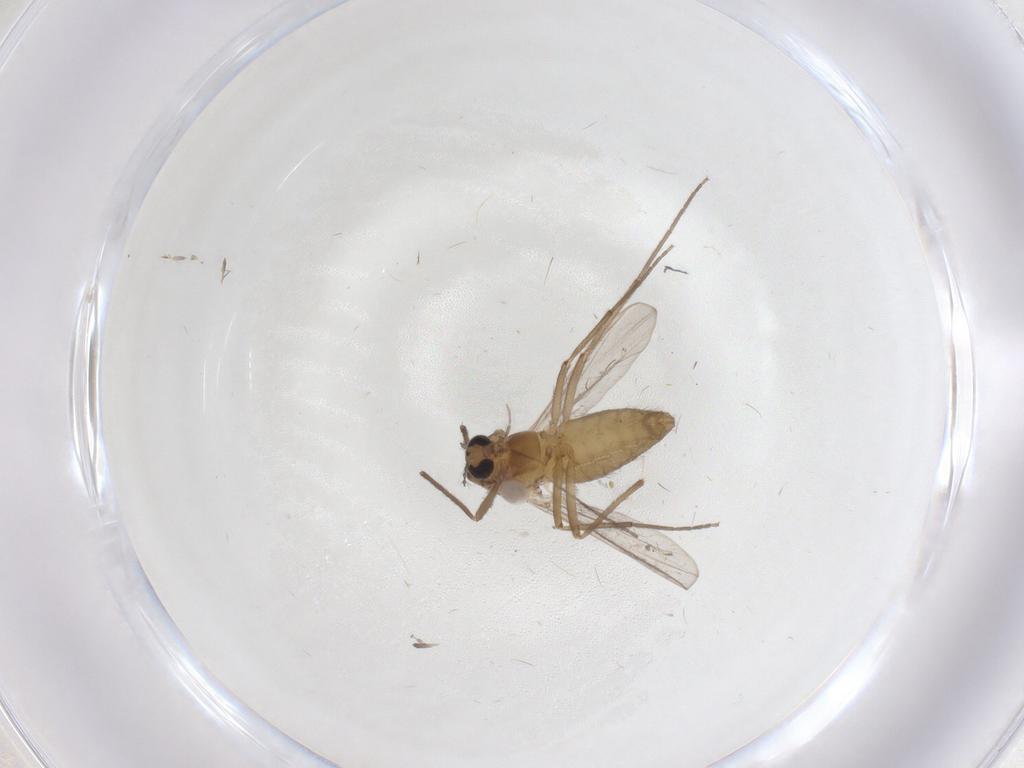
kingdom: Animalia
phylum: Arthropoda
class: Insecta
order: Diptera
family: Chironomidae
